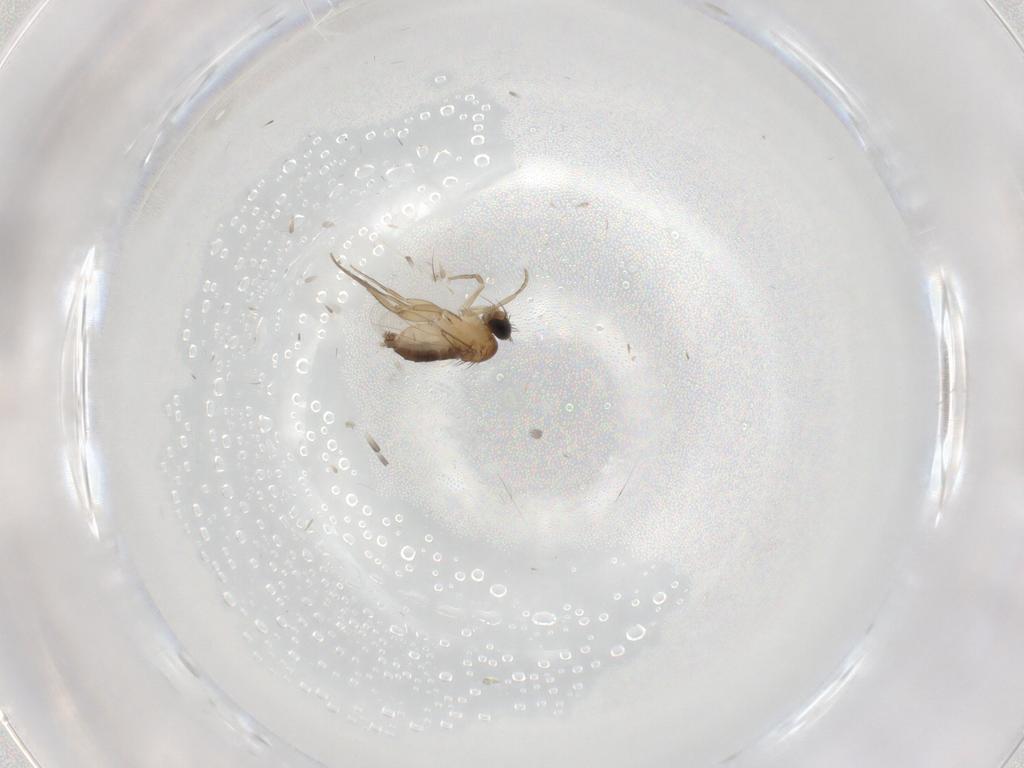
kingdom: Animalia
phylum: Arthropoda
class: Insecta
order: Diptera
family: Phoridae
